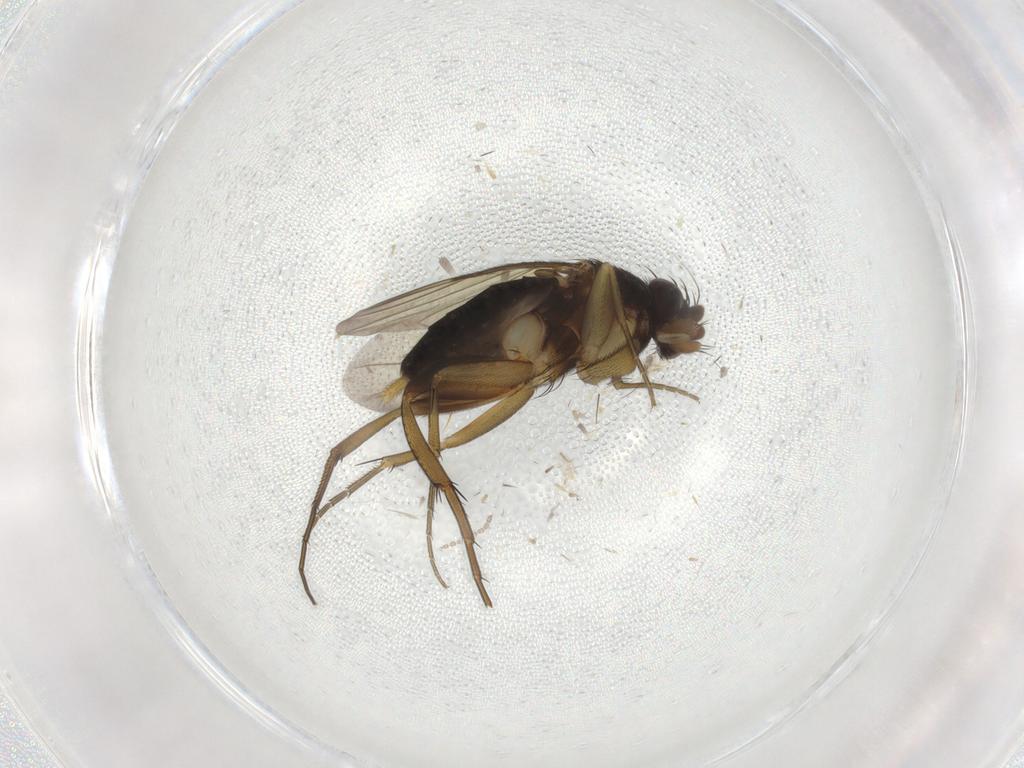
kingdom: Animalia
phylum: Arthropoda
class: Insecta
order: Diptera
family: Phoridae
